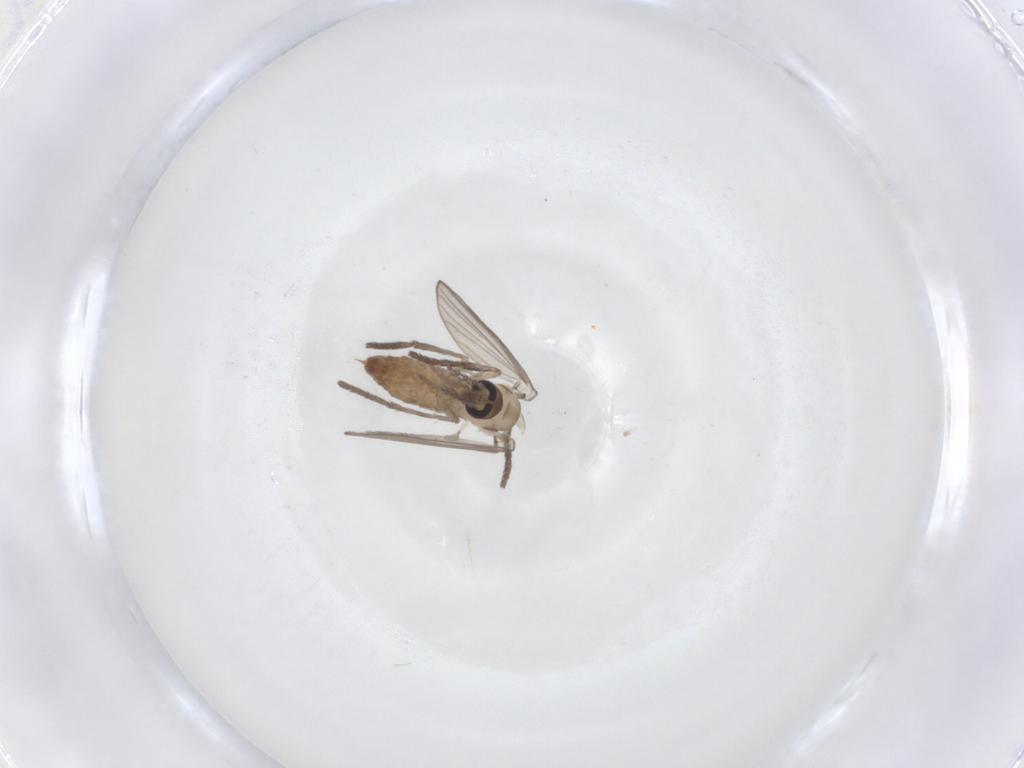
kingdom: Animalia
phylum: Arthropoda
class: Insecta
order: Diptera
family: Psychodidae
